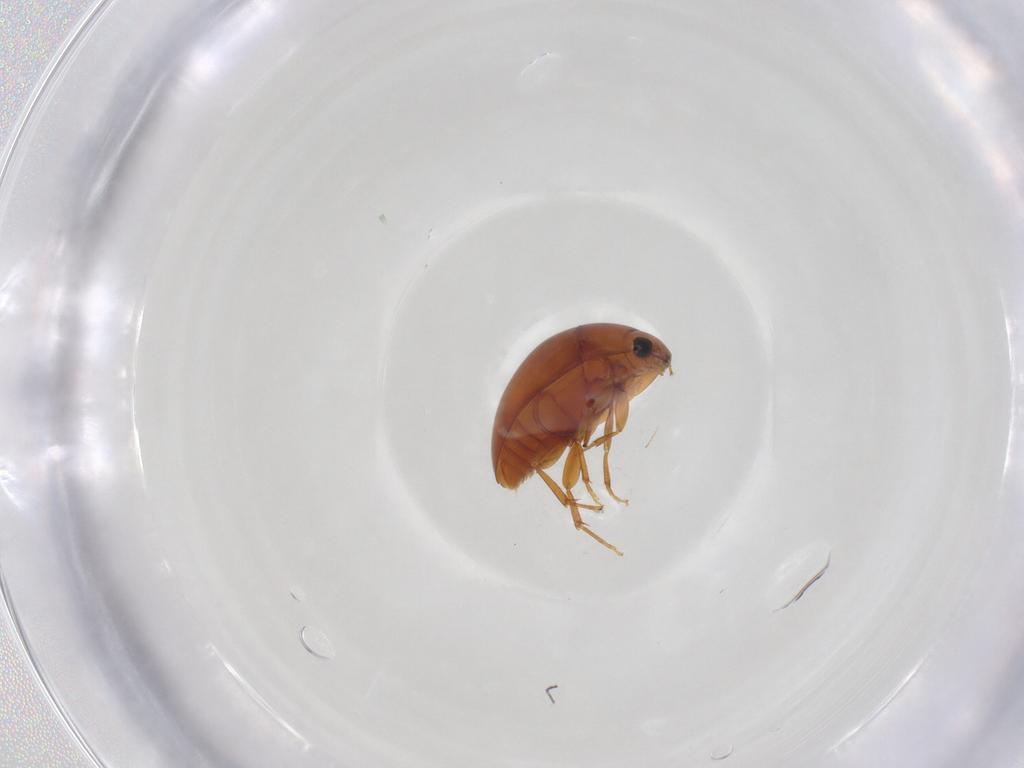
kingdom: Animalia
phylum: Arthropoda
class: Insecta
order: Coleoptera
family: Phalacridae
